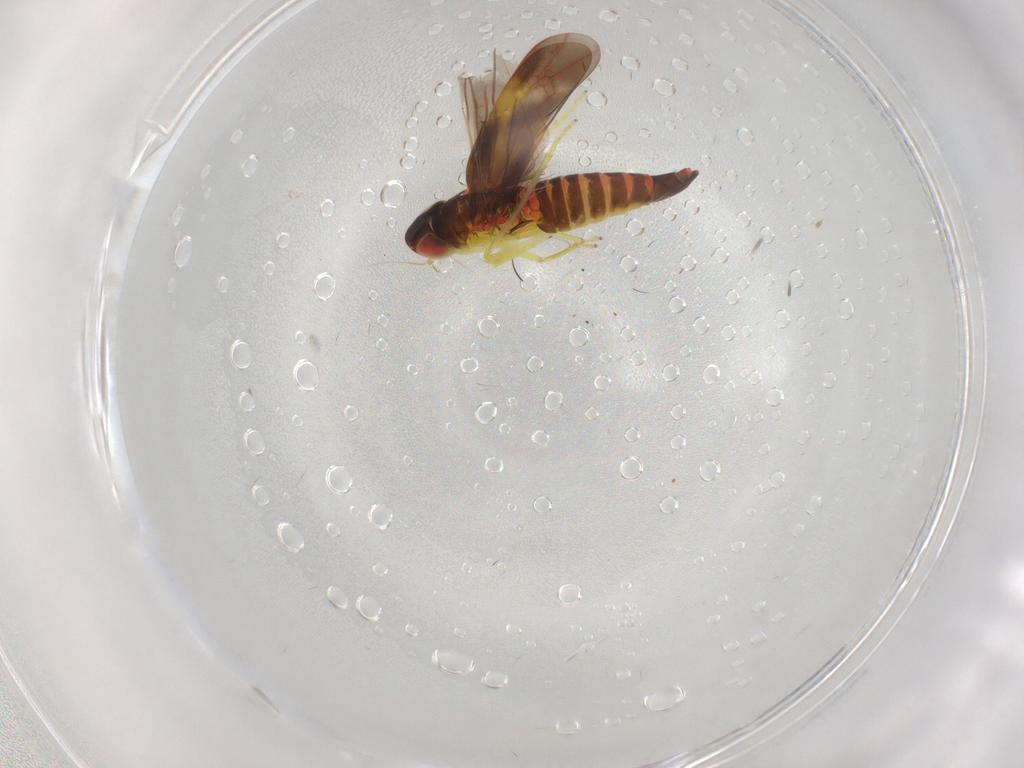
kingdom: Animalia
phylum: Arthropoda
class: Insecta
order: Hemiptera
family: Cicadellidae
